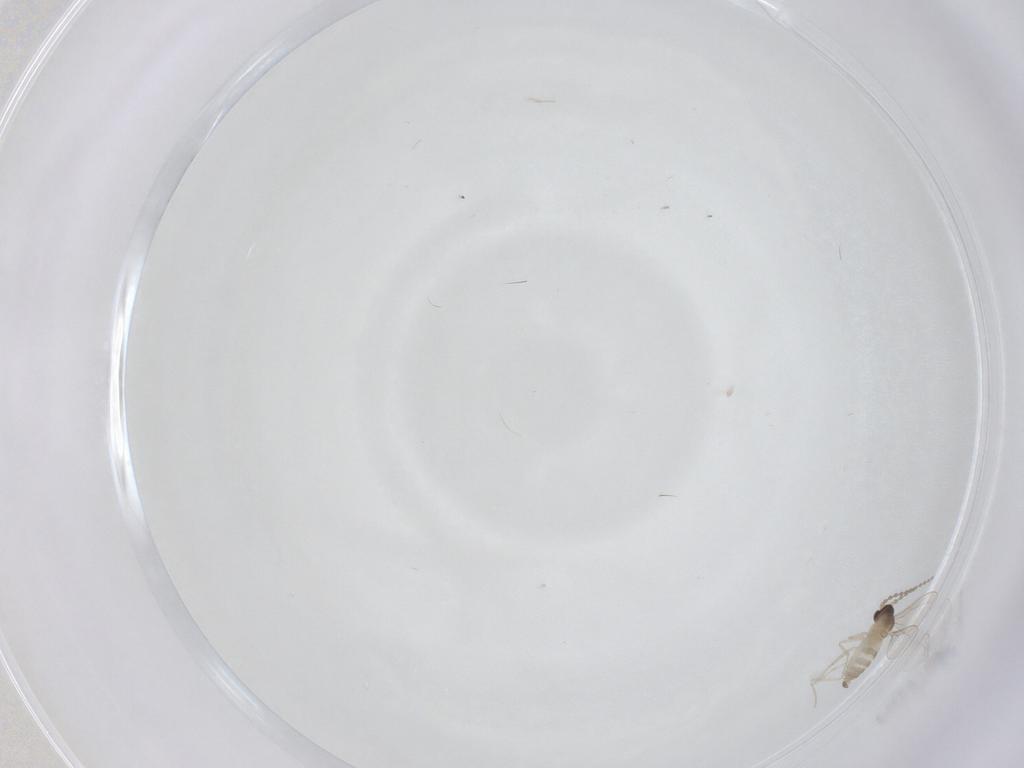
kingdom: Animalia
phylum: Arthropoda
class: Insecta
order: Diptera
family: Cecidomyiidae
